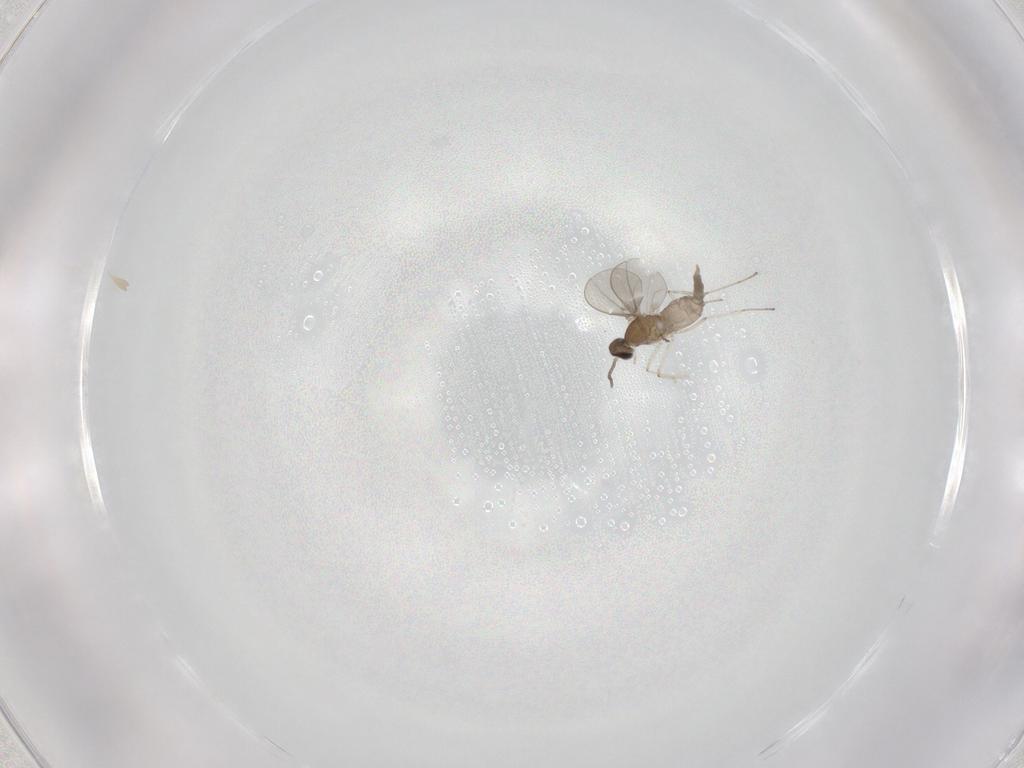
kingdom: Animalia
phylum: Arthropoda
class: Insecta
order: Diptera
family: Cecidomyiidae
